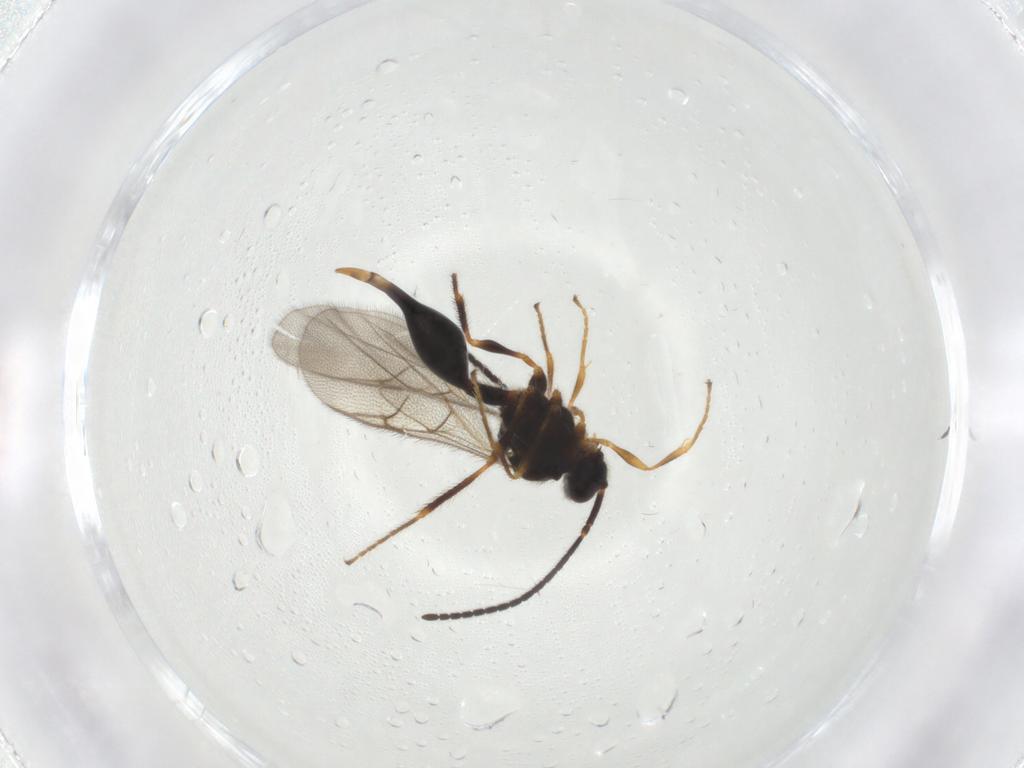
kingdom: Animalia
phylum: Arthropoda
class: Insecta
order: Hymenoptera
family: Diapriidae
